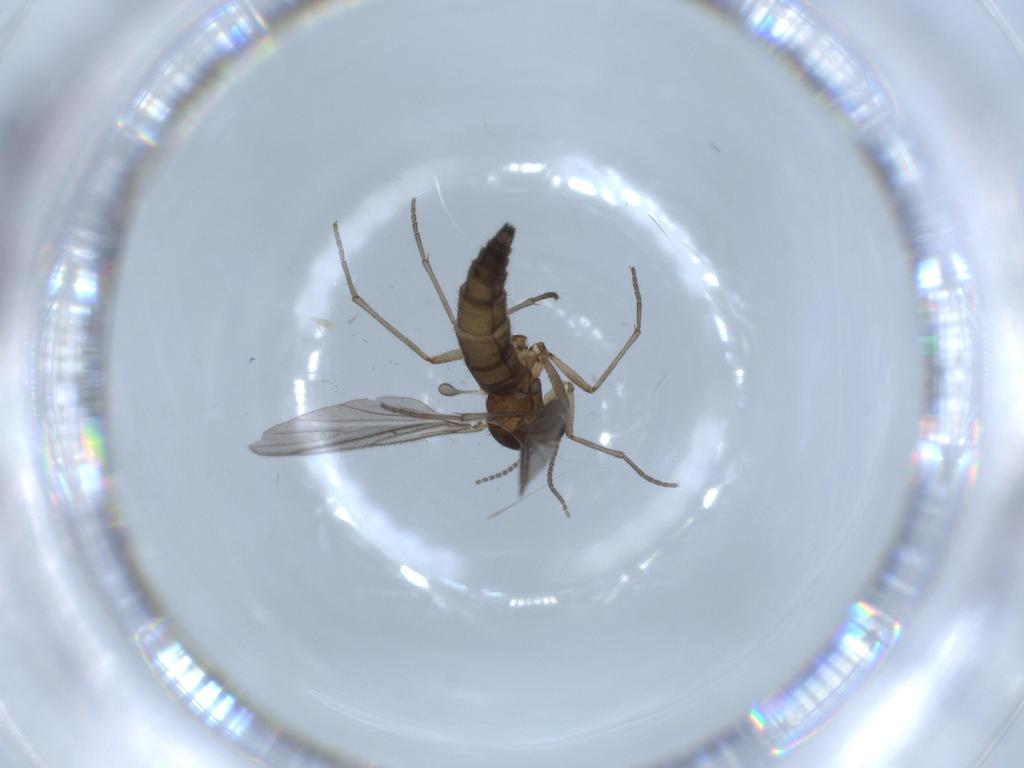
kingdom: Animalia
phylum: Arthropoda
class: Insecta
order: Diptera
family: Sciaridae
